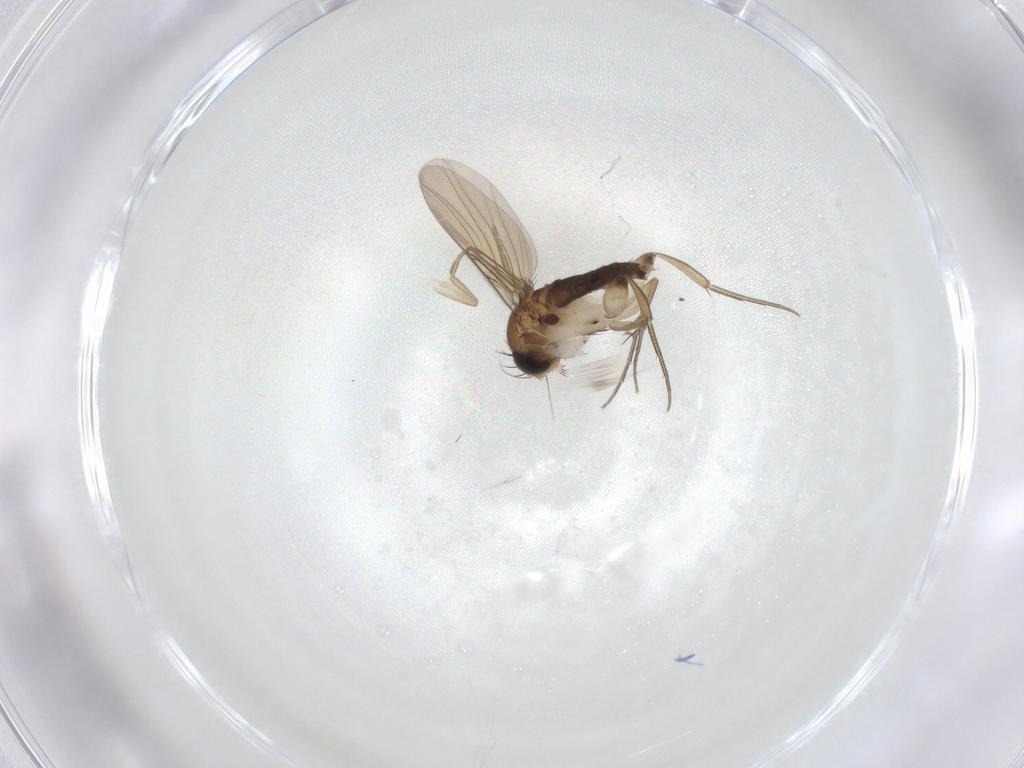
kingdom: Animalia
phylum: Arthropoda
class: Insecta
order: Diptera
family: Phoridae
